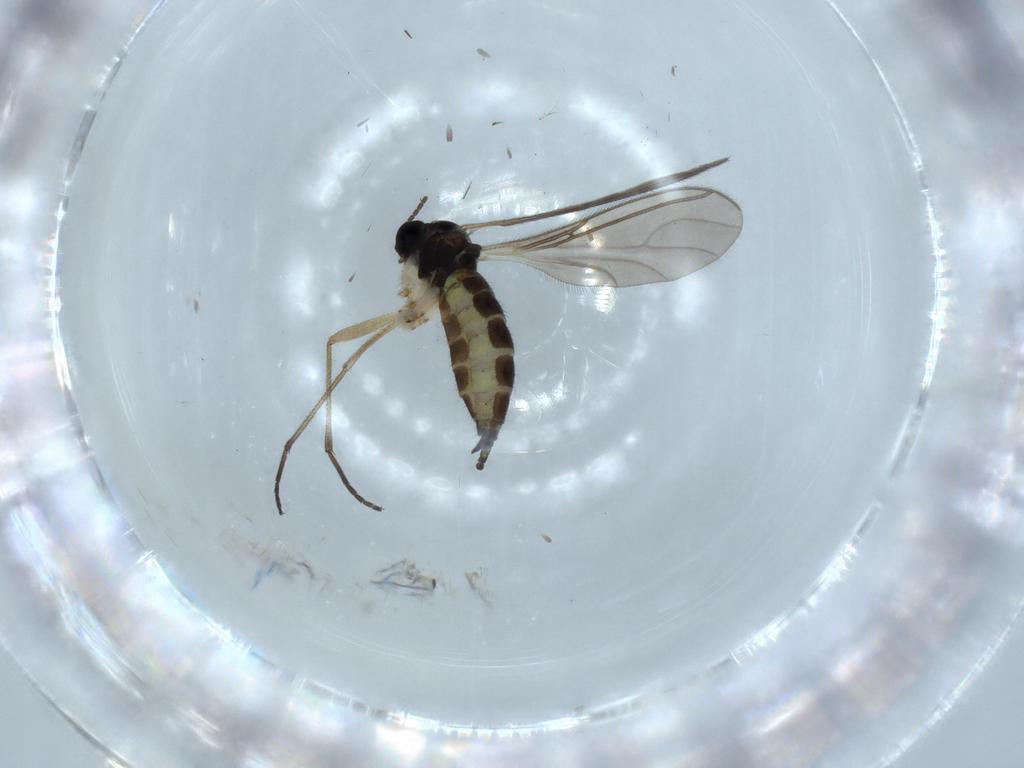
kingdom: Animalia
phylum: Arthropoda
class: Insecta
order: Diptera
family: Sciaridae
